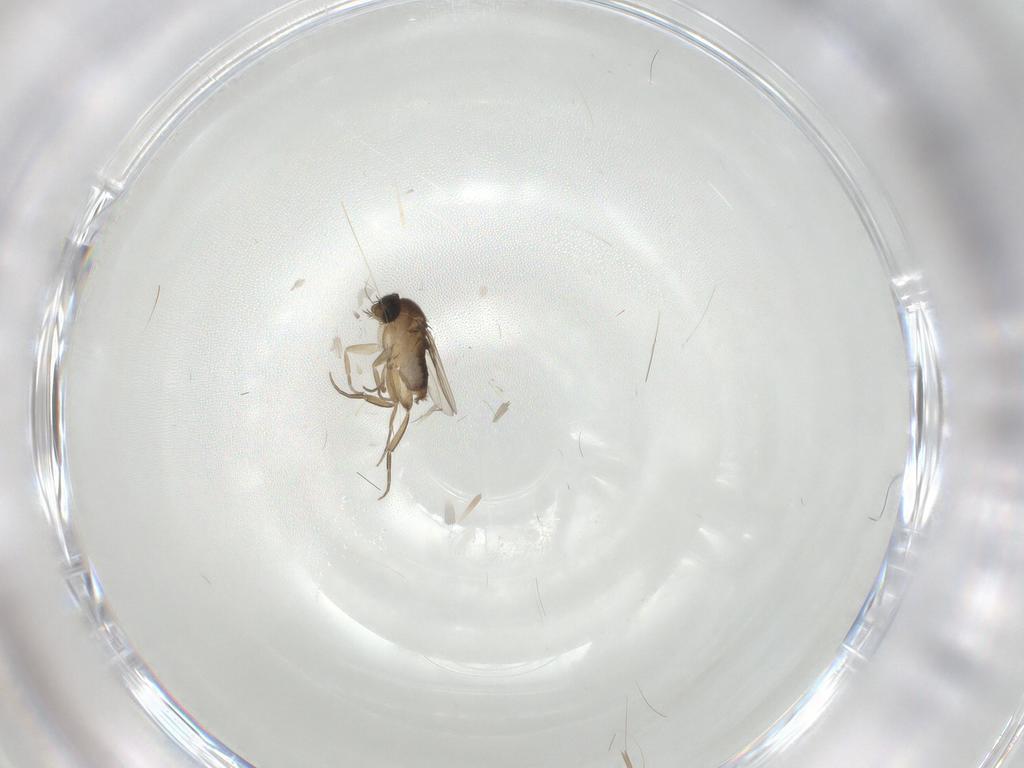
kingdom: Animalia
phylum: Arthropoda
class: Insecta
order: Diptera
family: Phoridae
